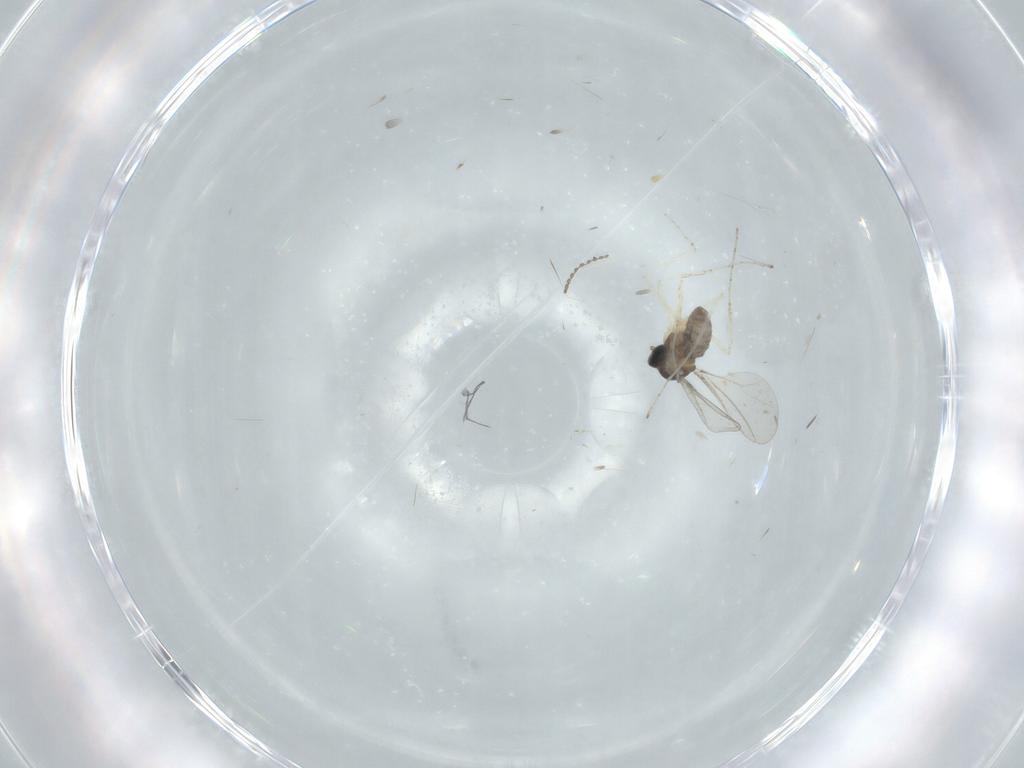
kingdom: Animalia
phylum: Arthropoda
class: Insecta
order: Diptera
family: Cecidomyiidae
